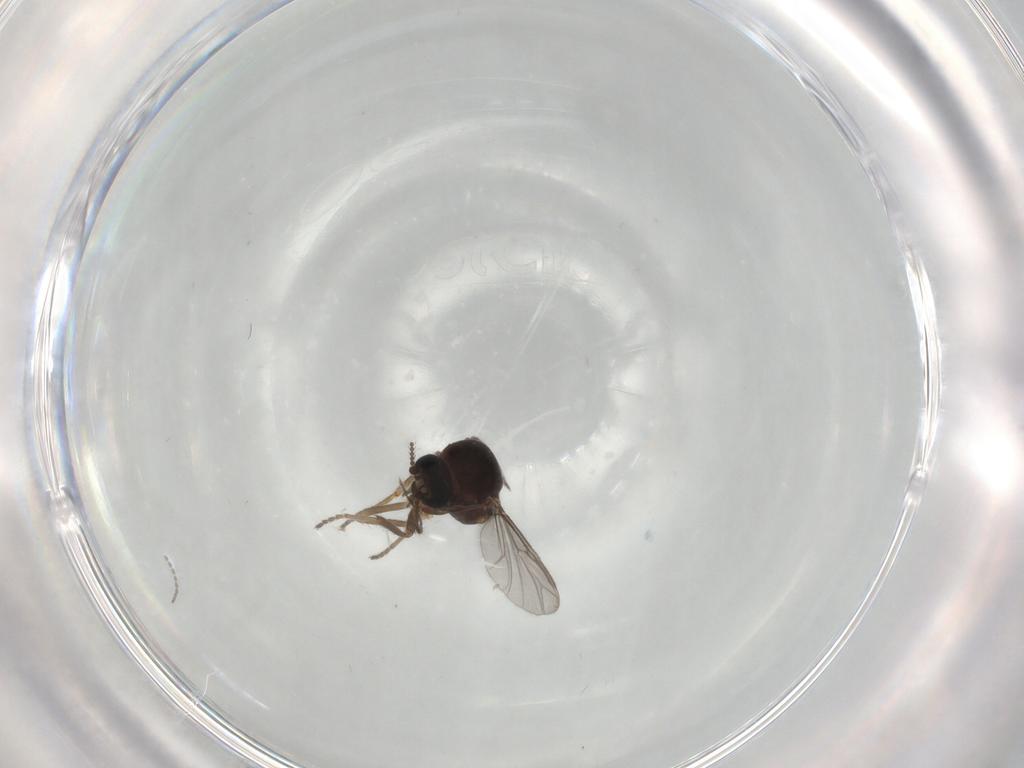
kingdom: Animalia
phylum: Arthropoda
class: Insecta
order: Diptera
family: Ceratopogonidae
